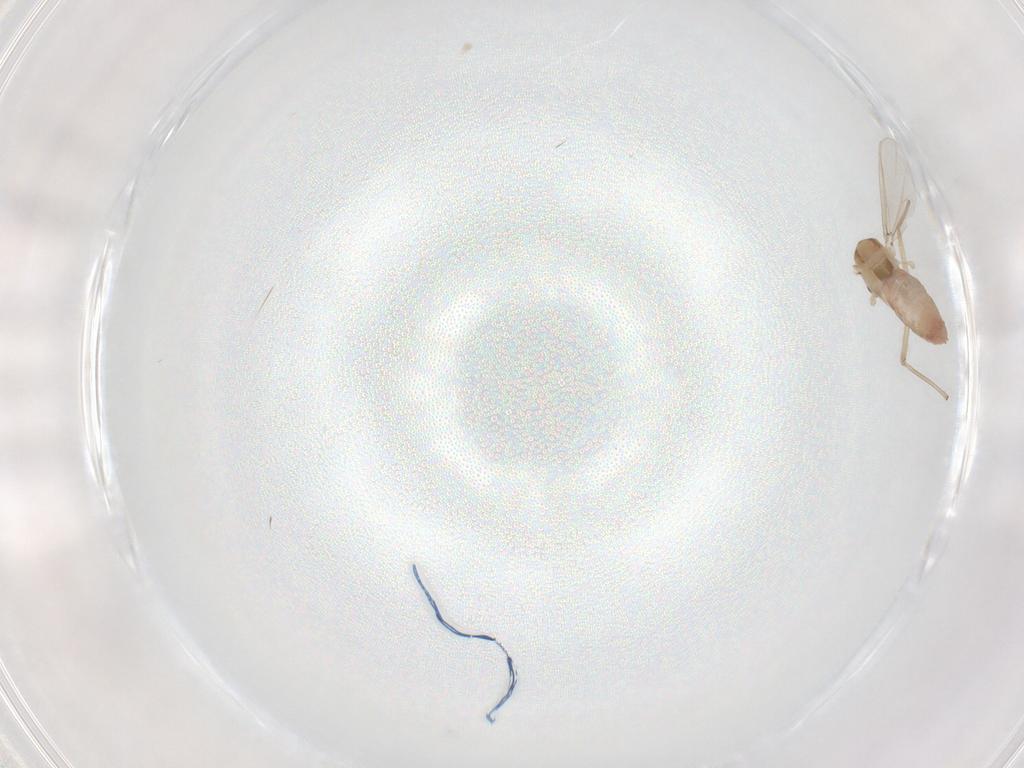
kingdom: Animalia
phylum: Arthropoda
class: Insecta
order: Diptera
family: Chironomidae
